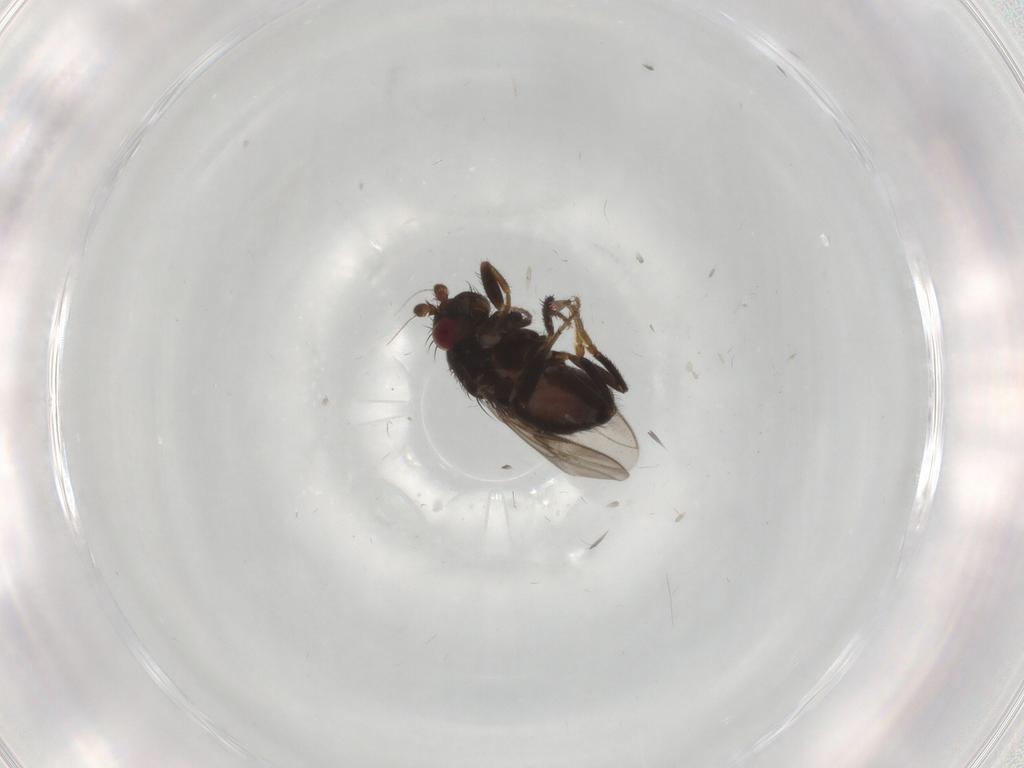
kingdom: Animalia
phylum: Arthropoda
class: Insecta
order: Diptera
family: Sphaeroceridae
